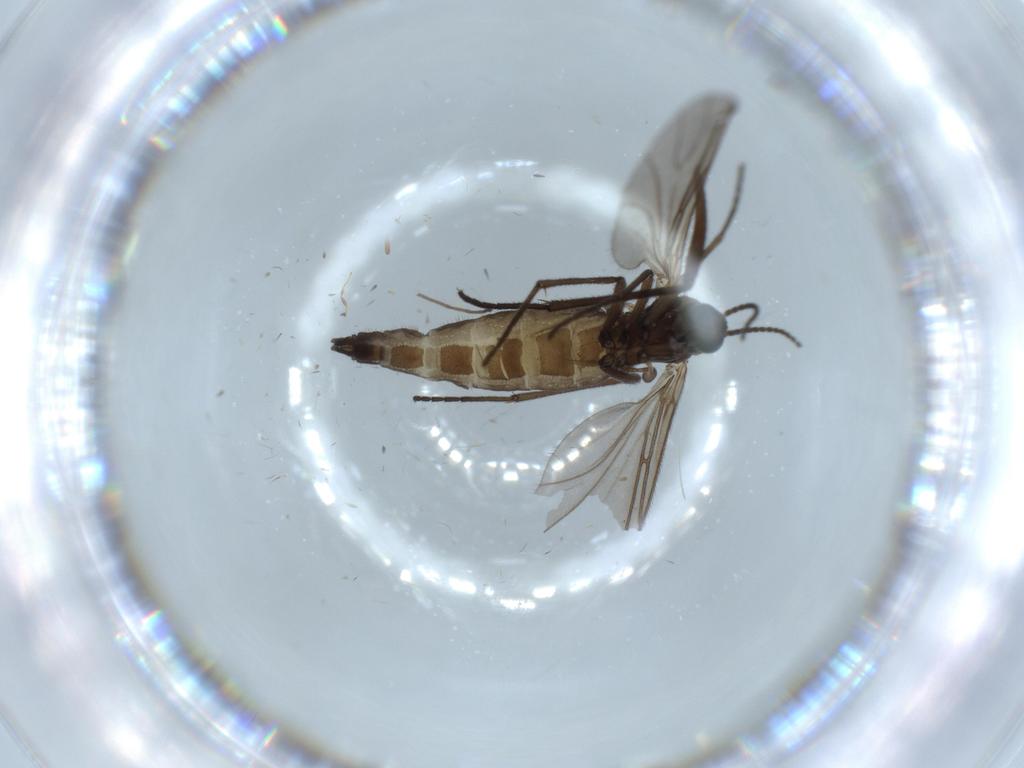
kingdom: Animalia
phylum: Arthropoda
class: Insecta
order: Diptera
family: Sciaridae
